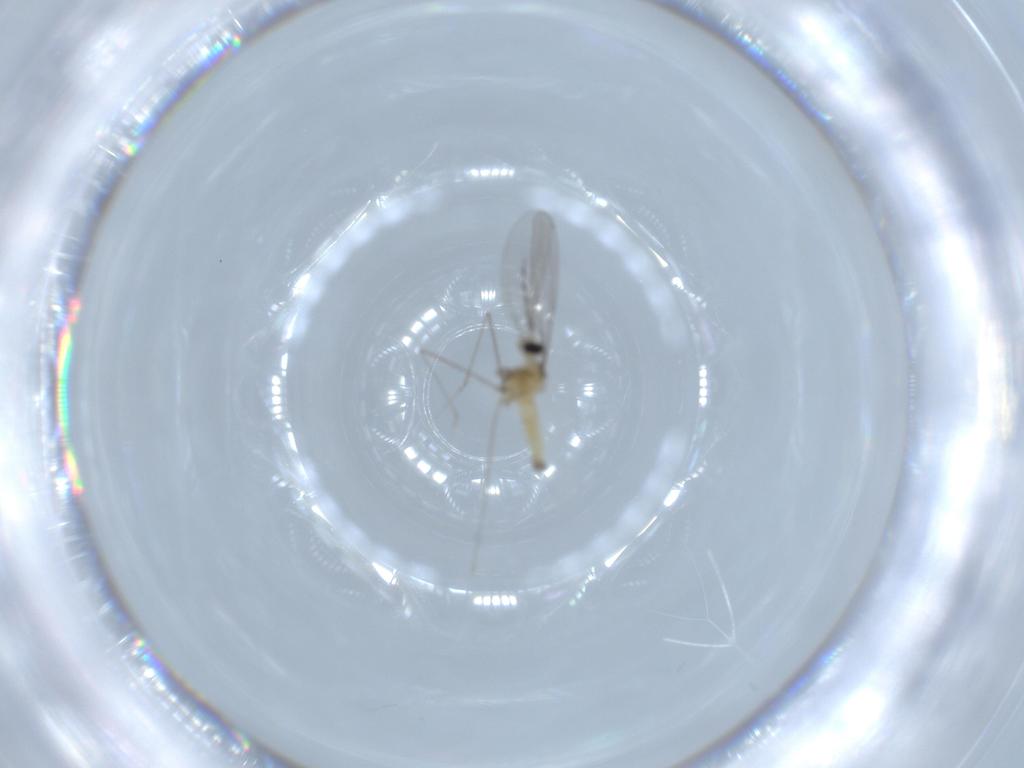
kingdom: Animalia
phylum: Arthropoda
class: Insecta
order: Diptera
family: Cecidomyiidae
